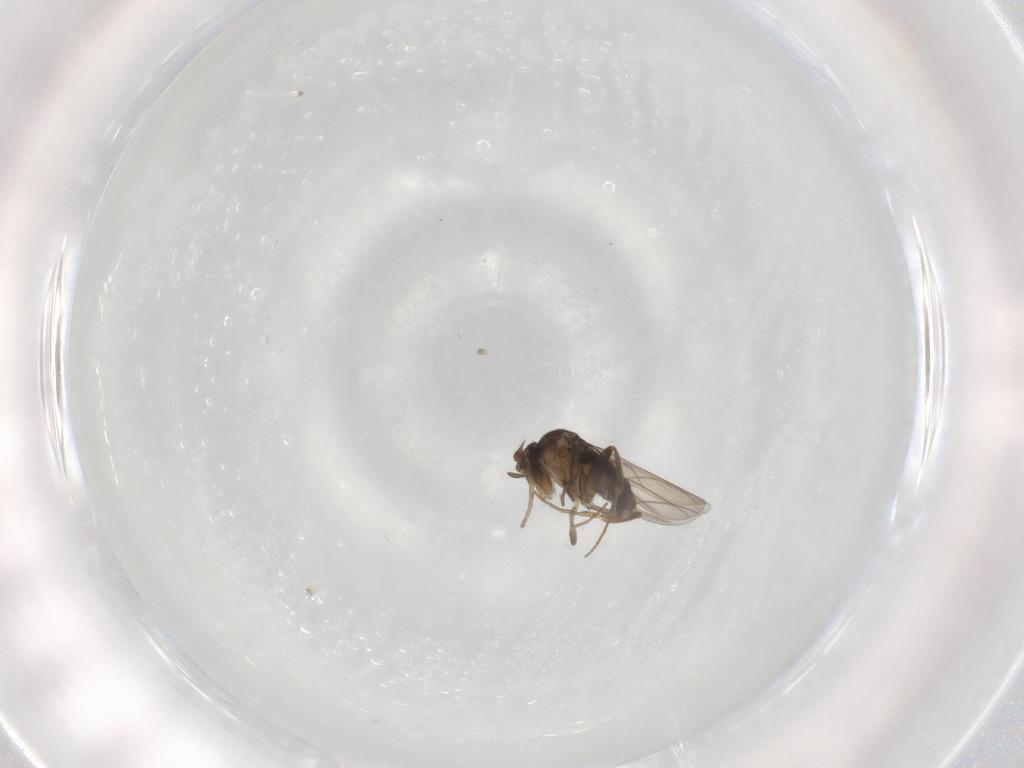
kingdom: Animalia
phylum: Arthropoda
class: Insecta
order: Diptera
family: Phoridae
